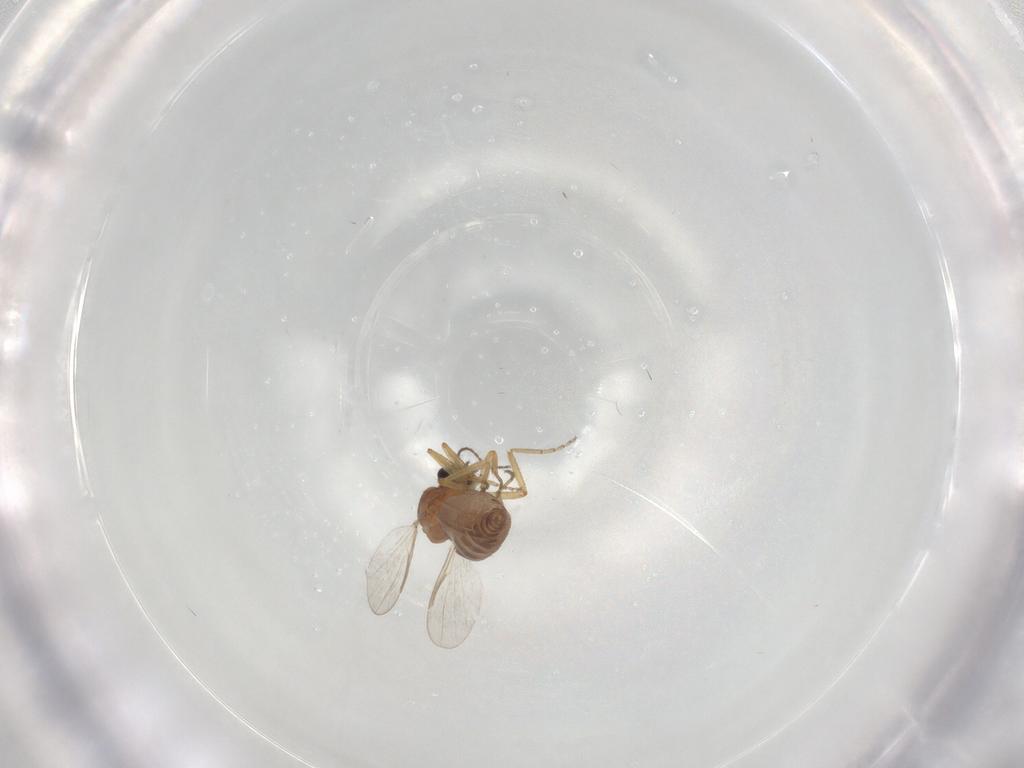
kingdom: Animalia
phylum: Arthropoda
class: Insecta
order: Diptera
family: Ceratopogonidae
